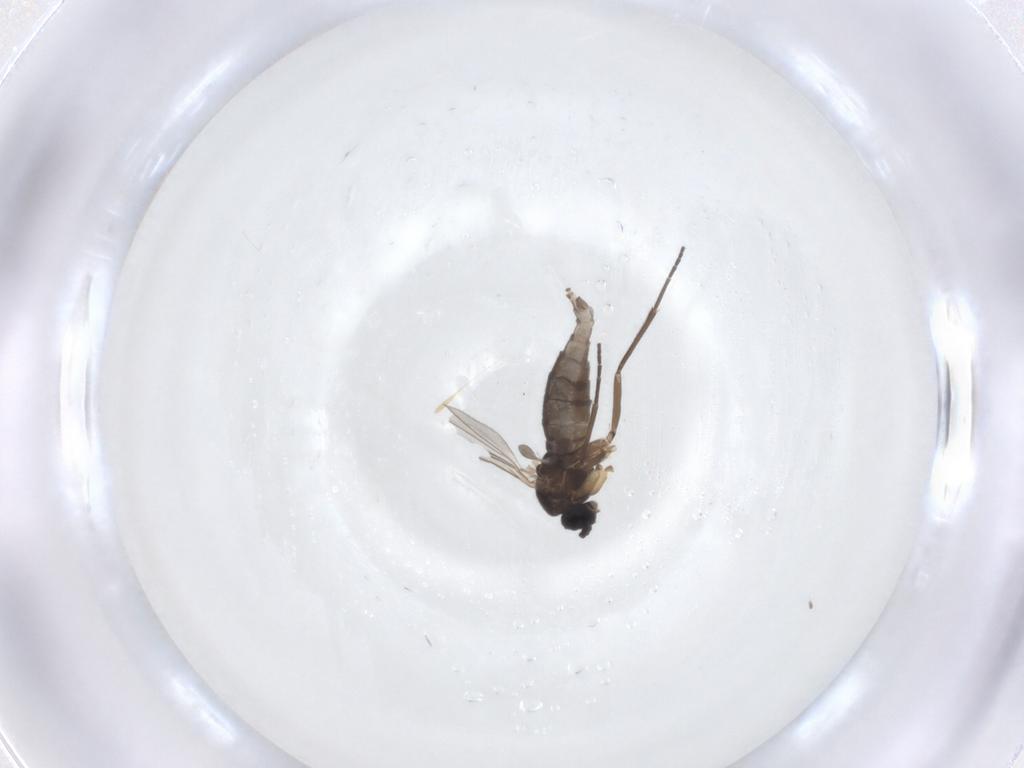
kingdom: Animalia
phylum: Arthropoda
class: Insecta
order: Diptera
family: Sciaridae
